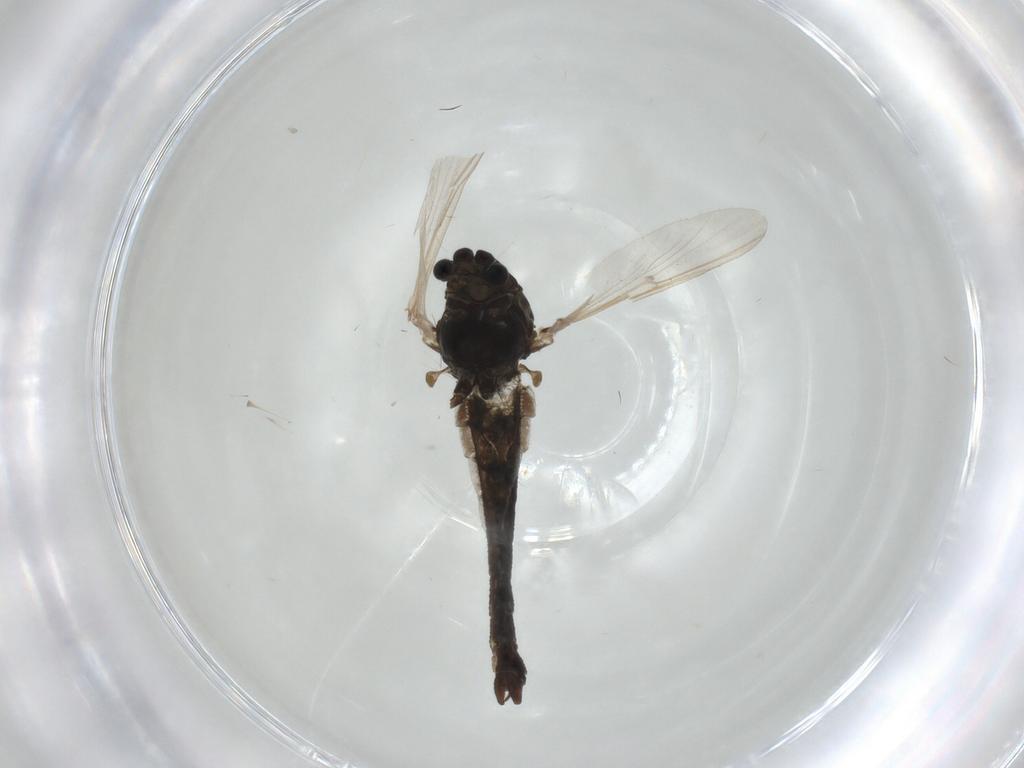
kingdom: Animalia
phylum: Arthropoda
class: Insecta
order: Diptera
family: Chironomidae
